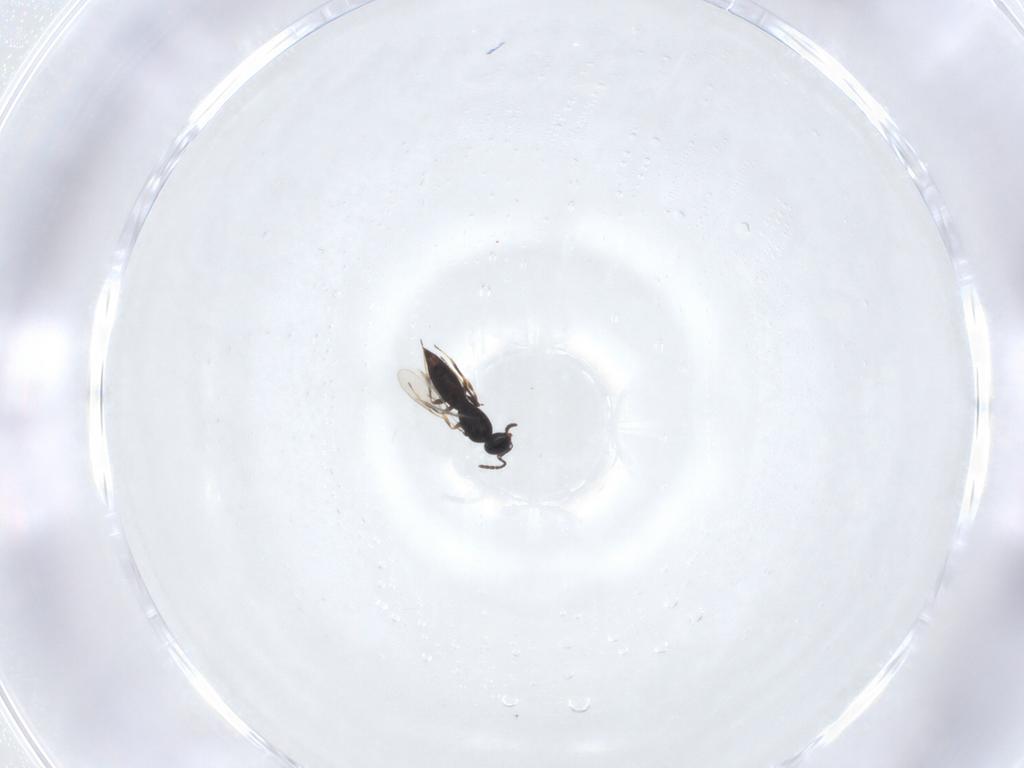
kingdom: Animalia
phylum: Arthropoda
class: Insecta
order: Hymenoptera
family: Scelionidae
